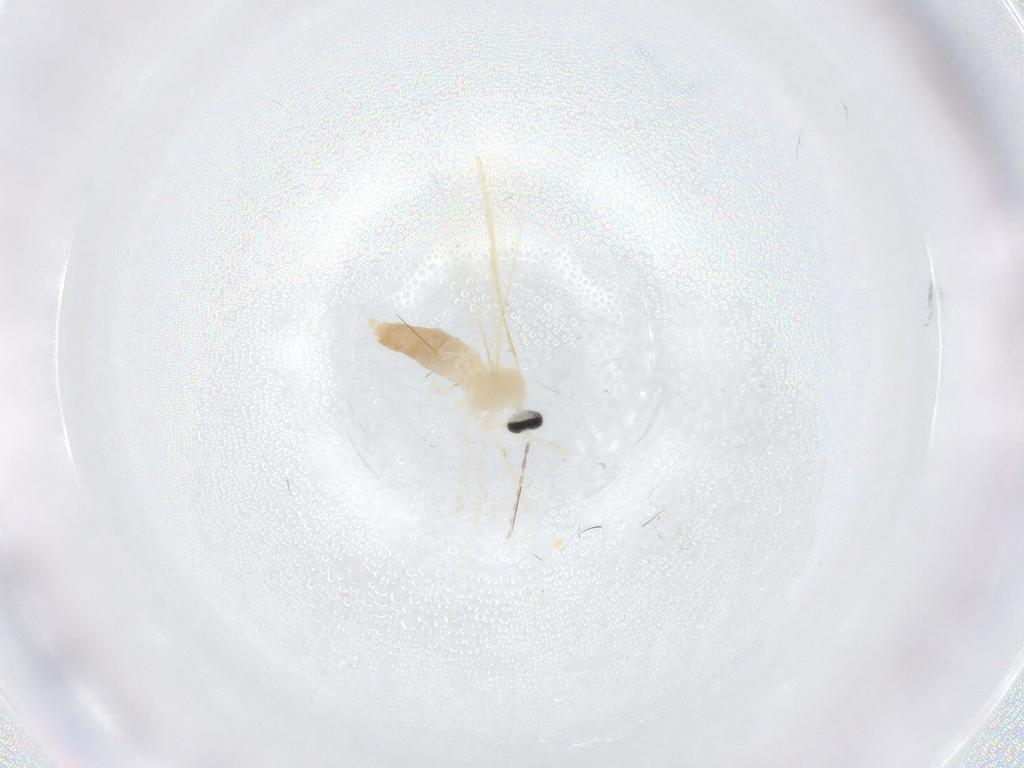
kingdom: Animalia
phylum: Arthropoda
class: Insecta
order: Diptera
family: Cecidomyiidae
